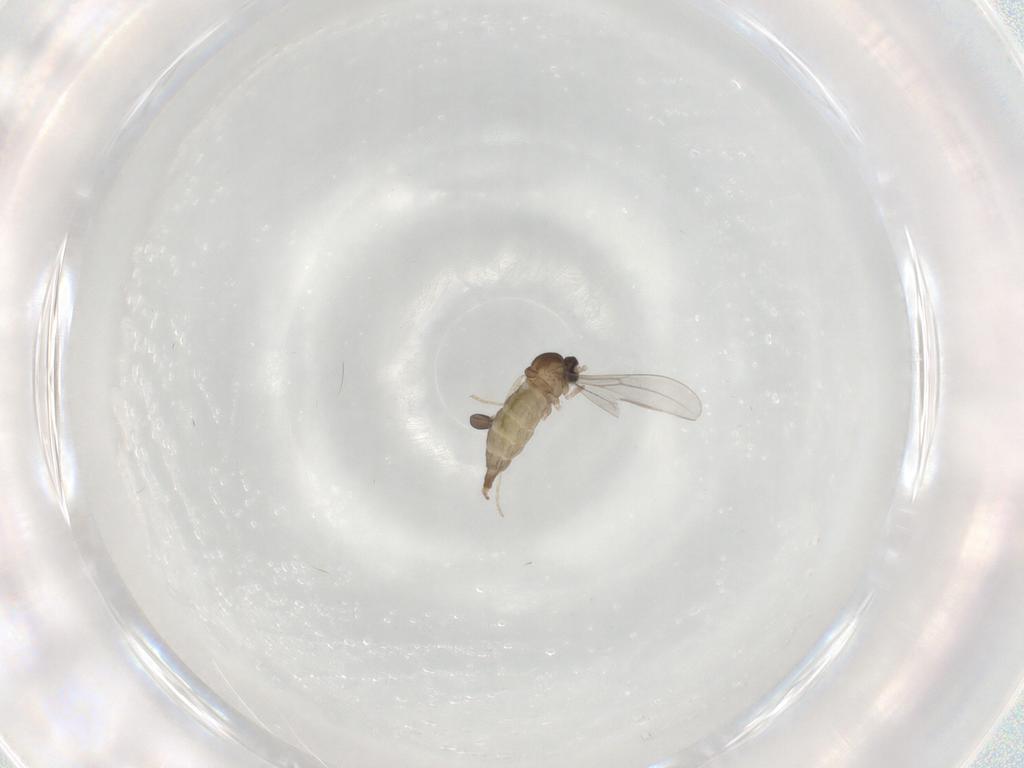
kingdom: Animalia
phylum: Arthropoda
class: Insecta
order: Diptera
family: Cecidomyiidae
